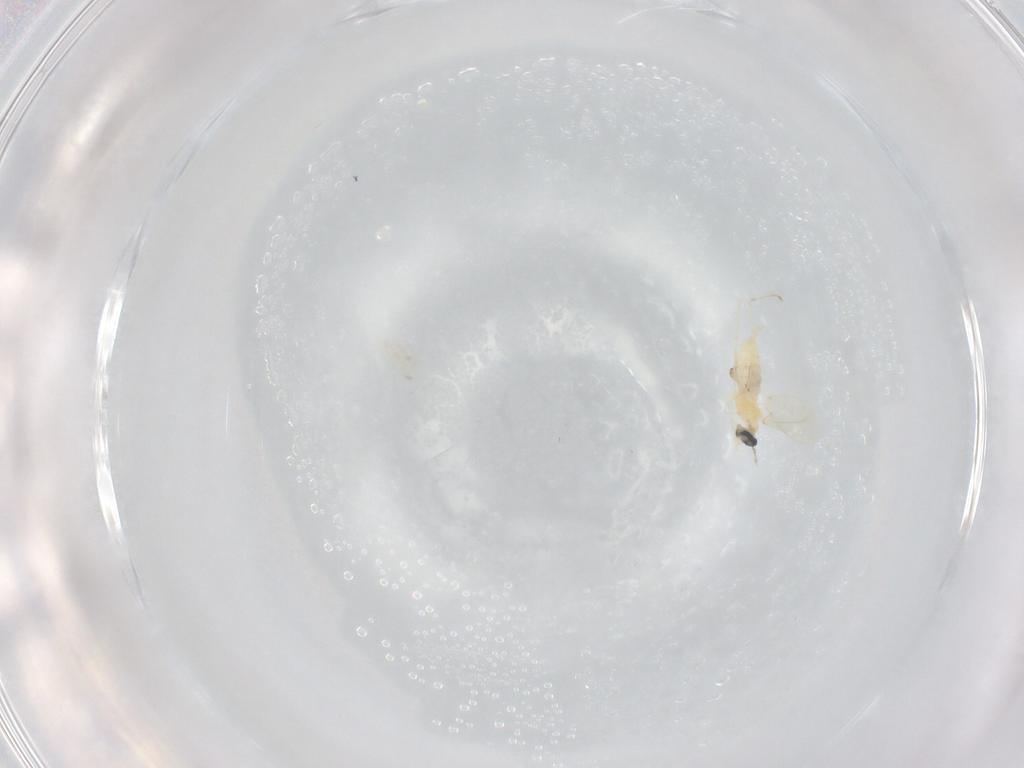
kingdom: Animalia
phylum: Arthropoda
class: Insecta
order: Diptera
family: Cecidomyiidae
